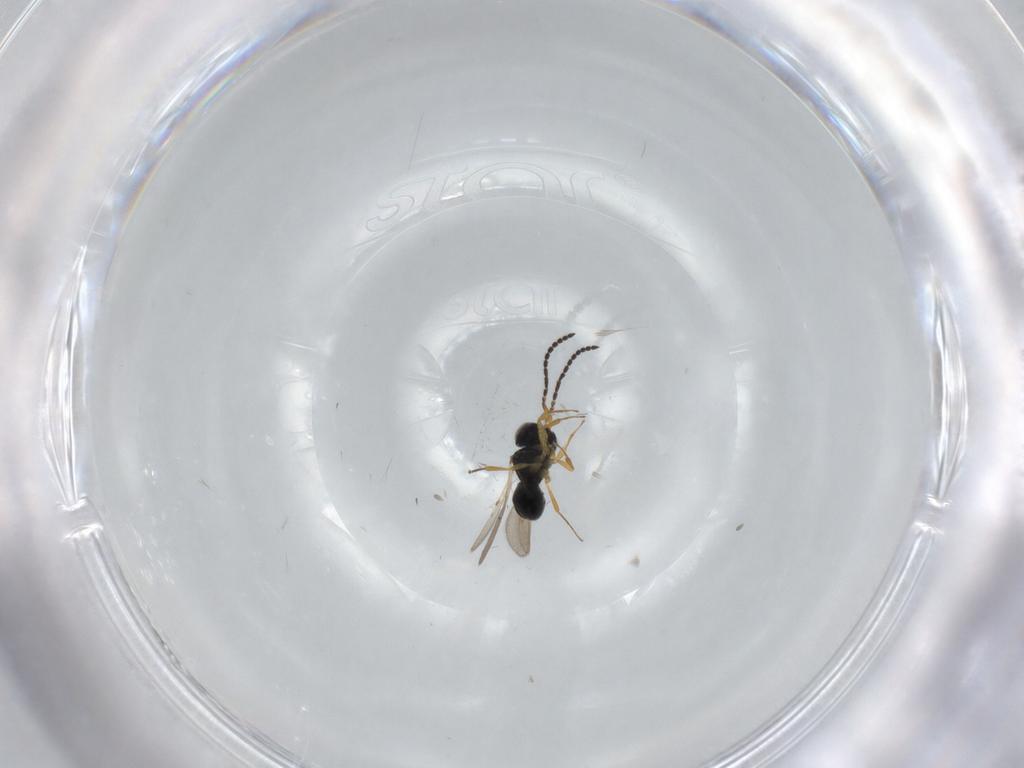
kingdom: Animalia
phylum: Arthropoda
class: Insecta
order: Hymenoptera
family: Scelionidae
